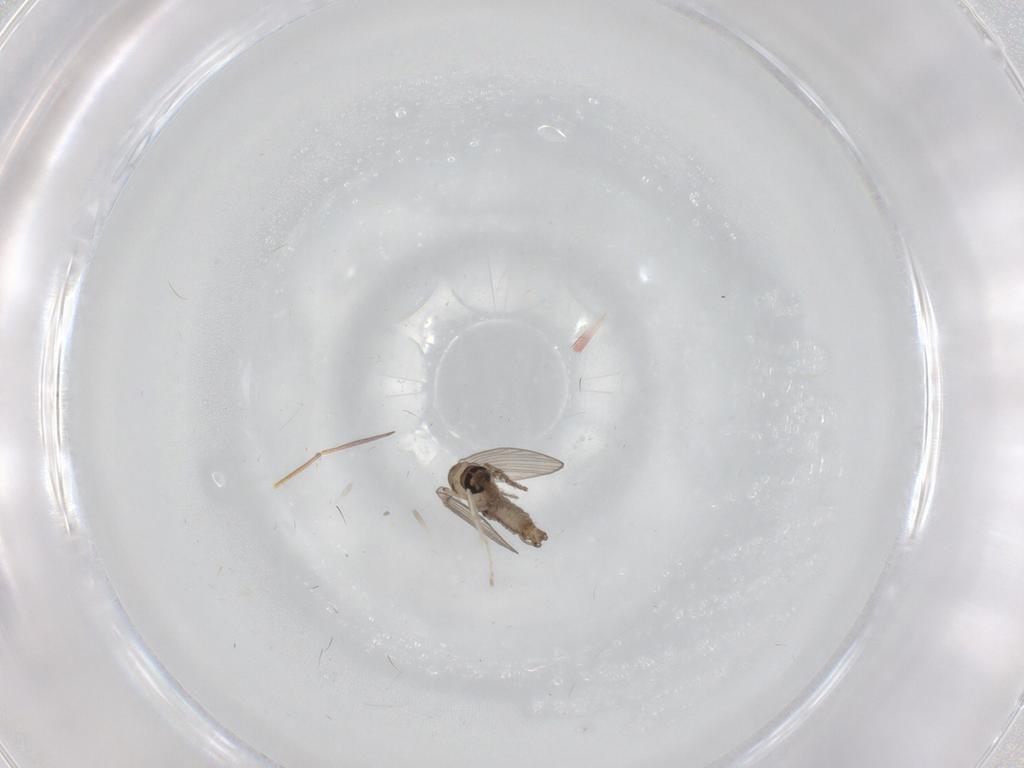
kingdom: Animalia
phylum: Arthropoda
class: Insecta
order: Diptera
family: Psychodidae
